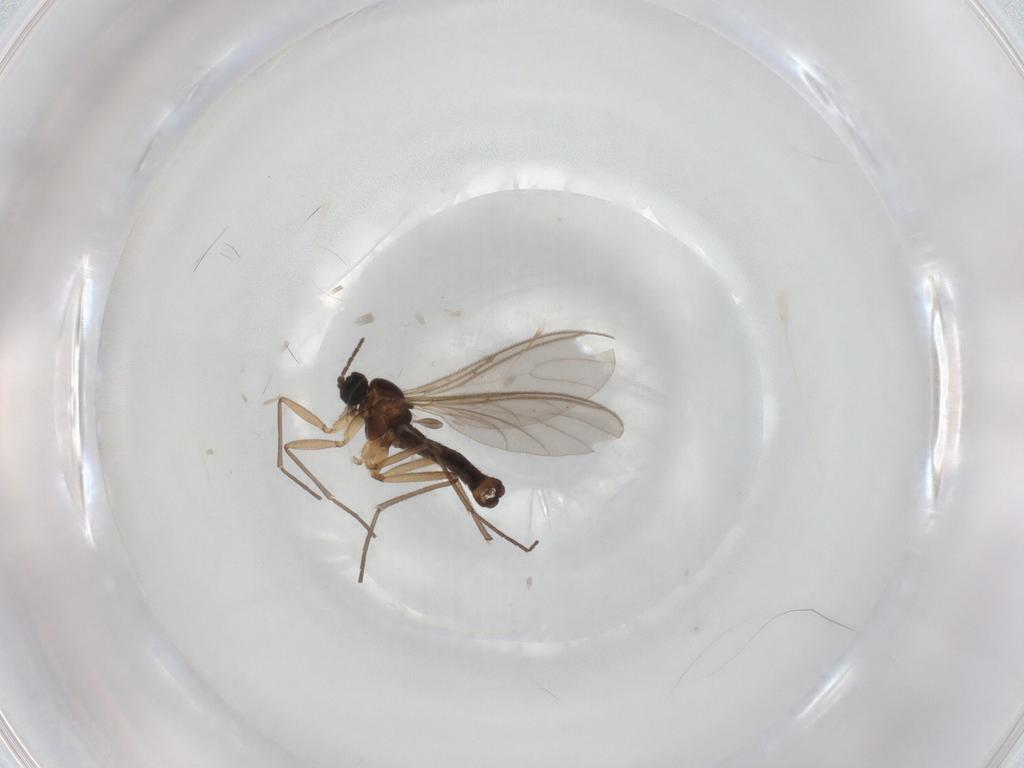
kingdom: Animalia
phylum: Arthropoda
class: Insecta
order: Diptera
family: Sciaridae
